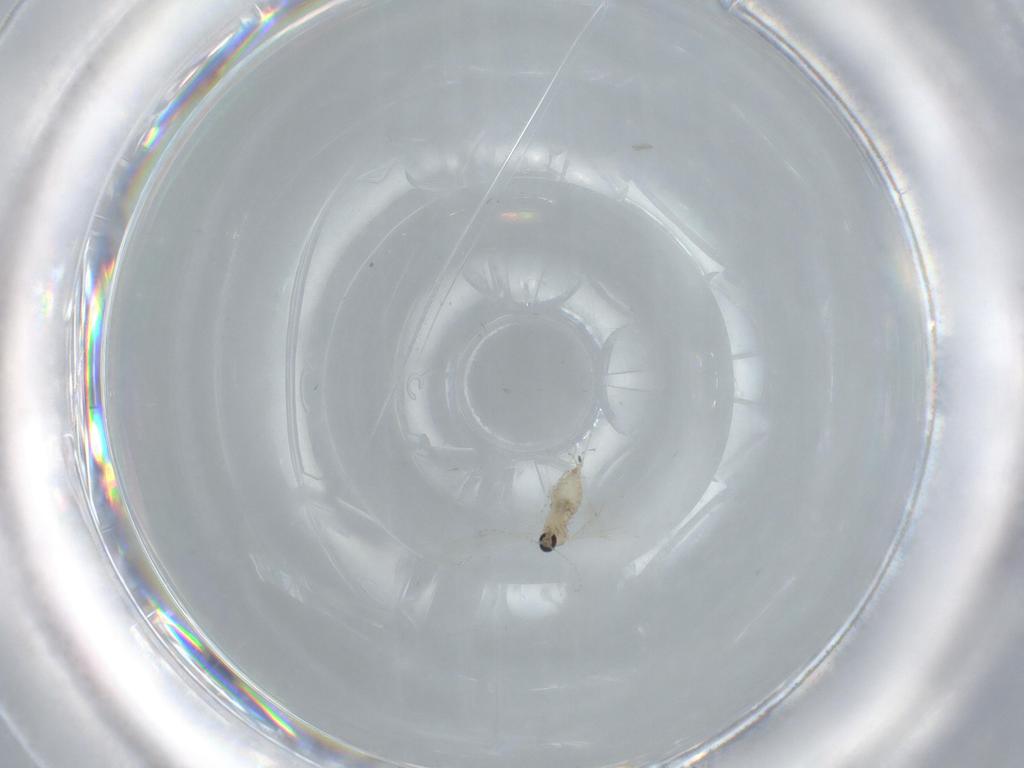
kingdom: Animalia
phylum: Arthropoda
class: Insecta
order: Diptera
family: Cecidomyiidae
